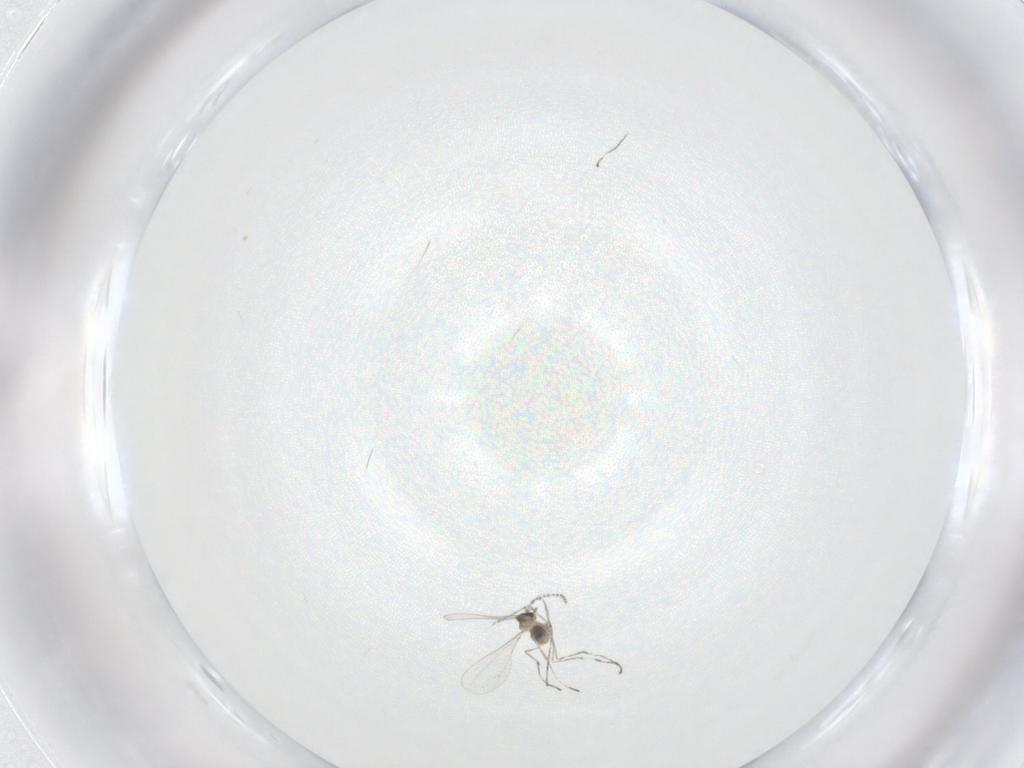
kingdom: Animalia
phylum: Arthropoda
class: Insecta
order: Diptera
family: Cecidomyiidae
